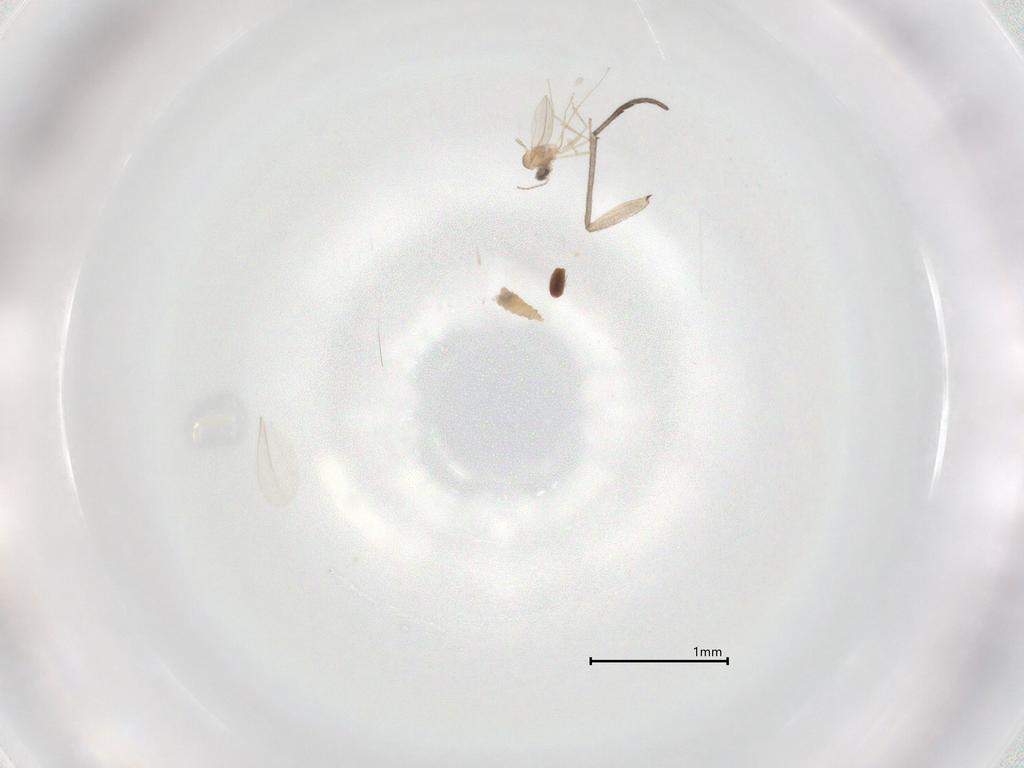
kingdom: Animalia
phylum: Arthropoda
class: Insecta
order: Diptera
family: Cecidomyiidae
